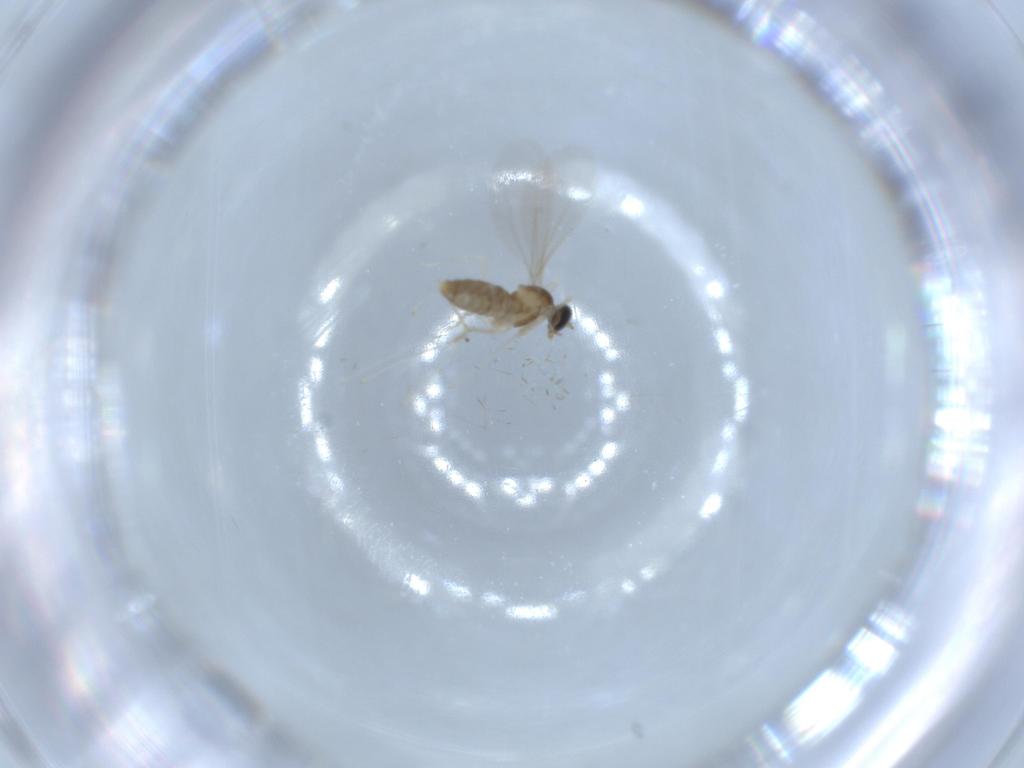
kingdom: Animalia
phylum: Arthropoda
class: Insecta
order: Diptera
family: Cecidomyiidae
